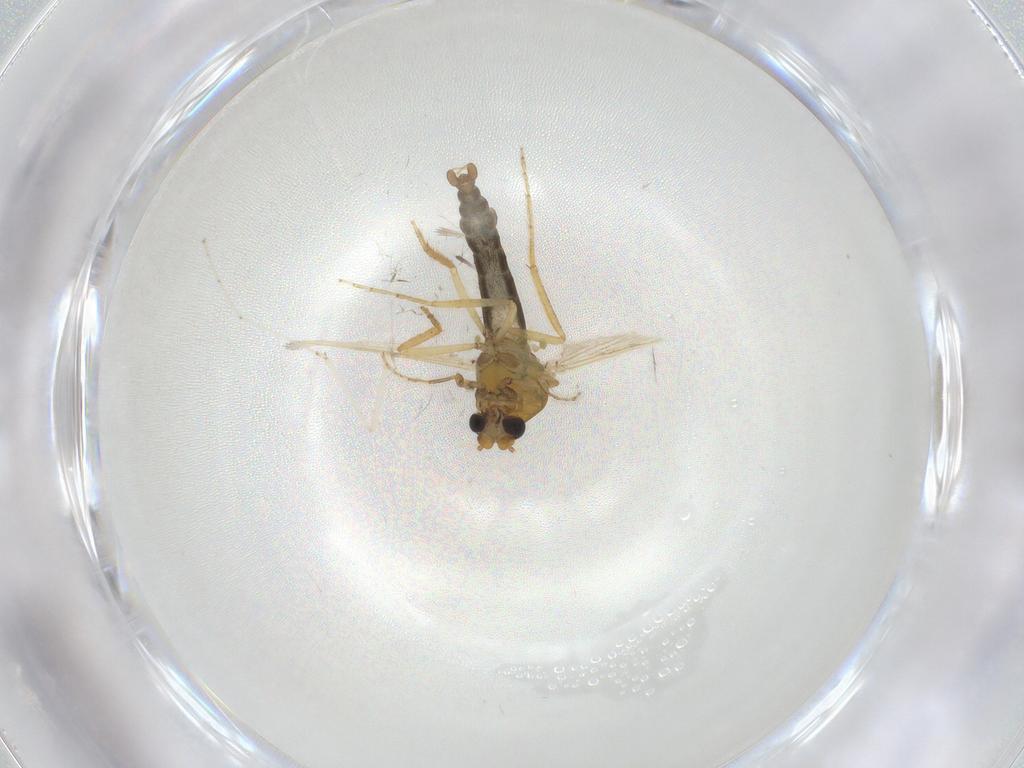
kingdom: Animalia
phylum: Arthropoda
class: Insecta
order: Diptera
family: Ceratopogonidae
